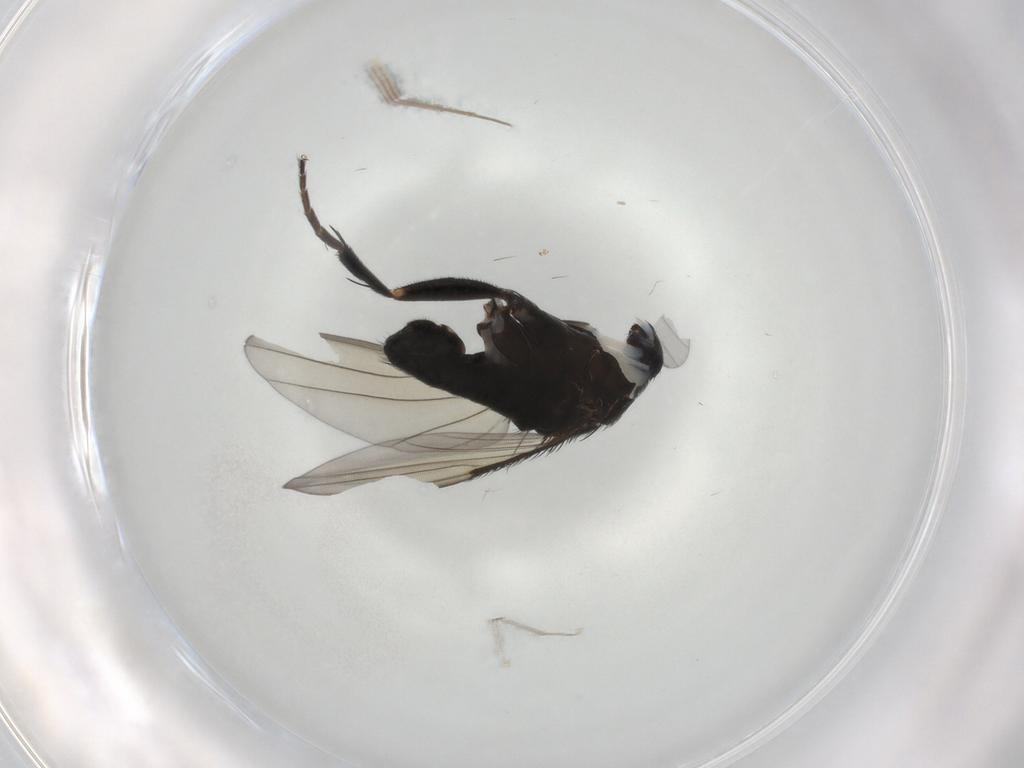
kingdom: Animalia
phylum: Arthropoda
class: Insecta
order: Diptera
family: Phoridae
